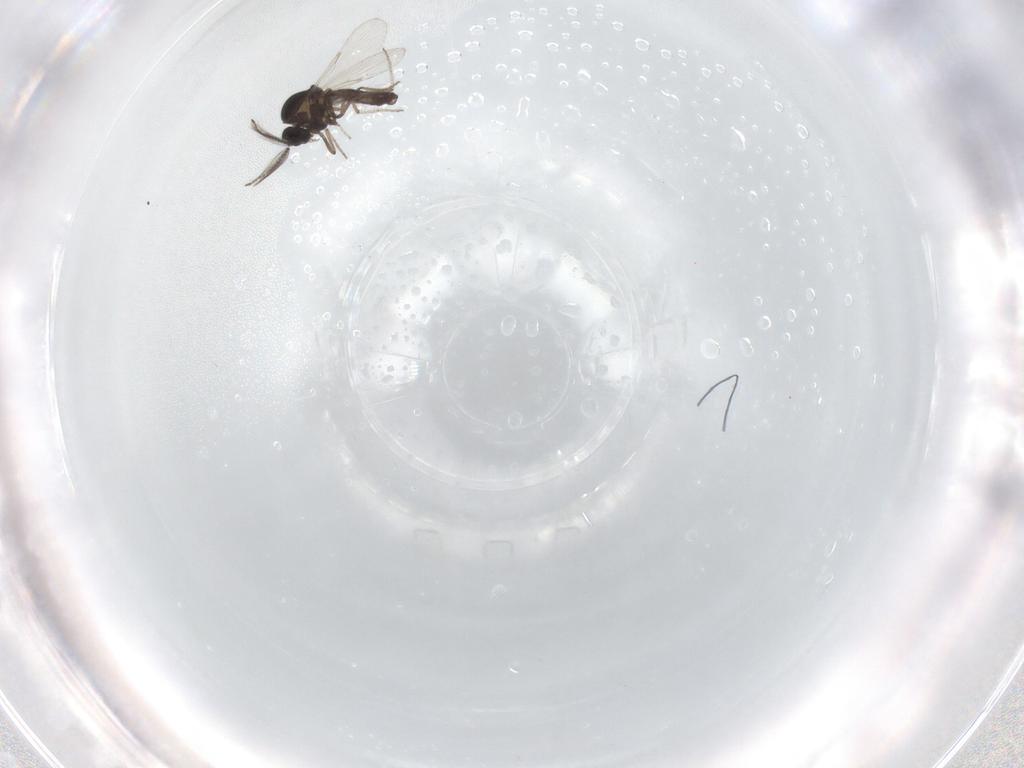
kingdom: Animalia
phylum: Arthropoda
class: Insecta
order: Diptera
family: Ceratopogonidae
